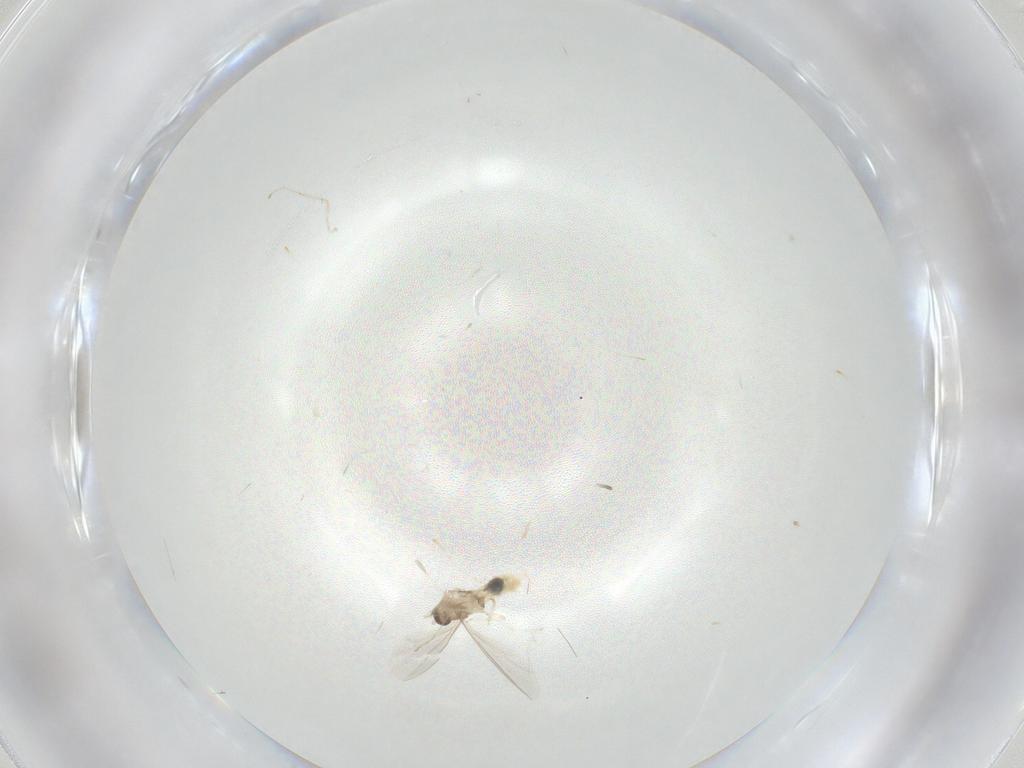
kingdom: Animalia
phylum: Arthropoda
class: Insecta
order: Diptera
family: Cecidomyiidae
